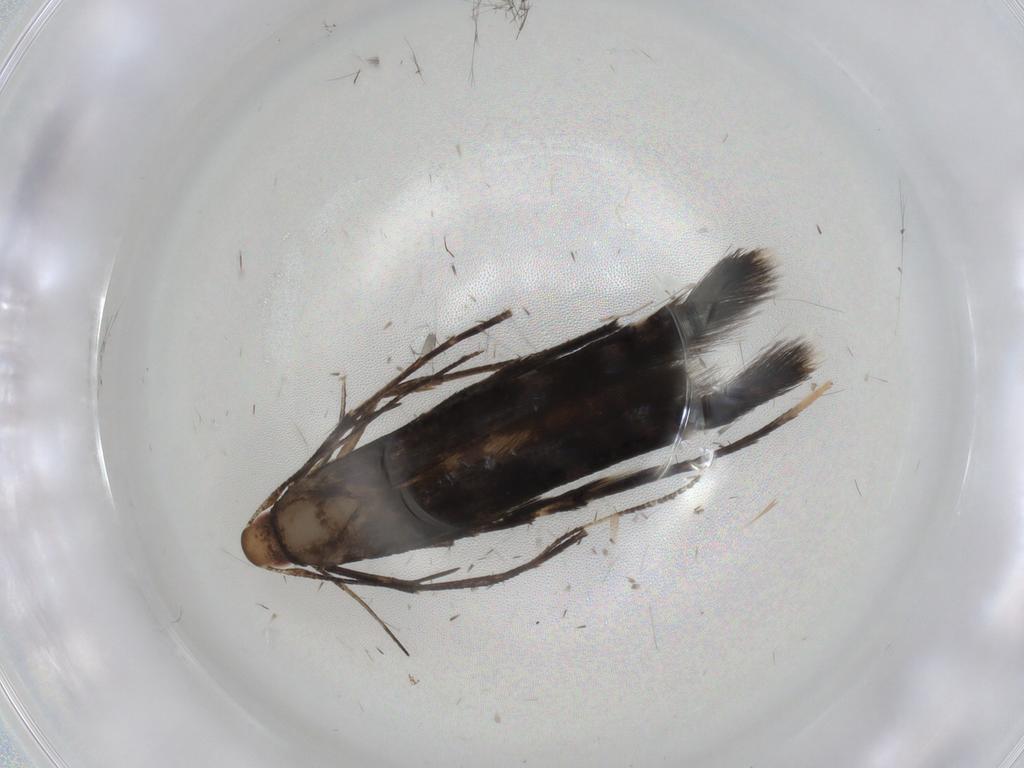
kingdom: Animalia
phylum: Arthropoda
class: Insecta
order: Lepidoptera
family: Cosmopterigidae
